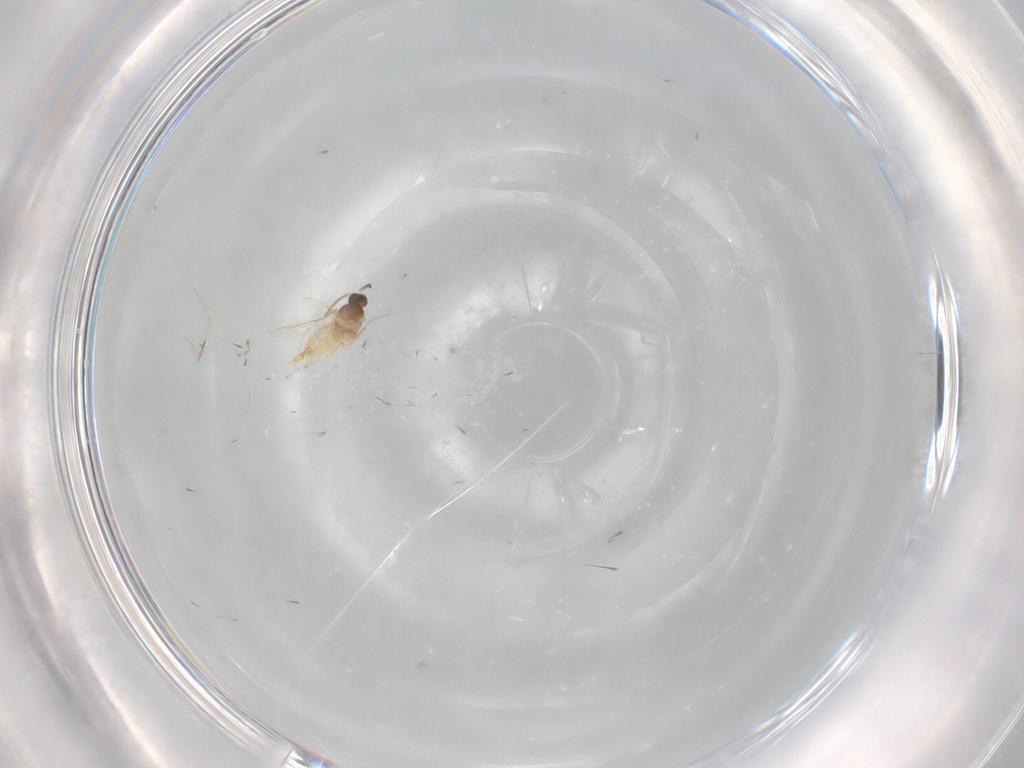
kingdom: Animalia
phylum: Arthropoda
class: Insecta
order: Diptera
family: Cecidomyiidae
